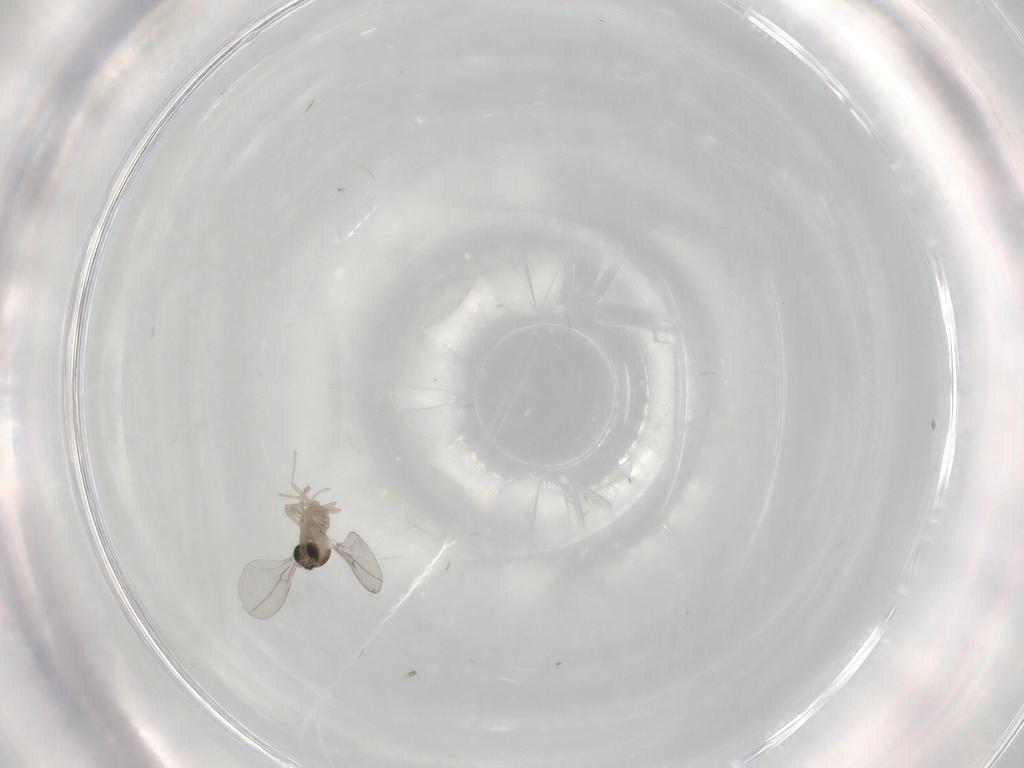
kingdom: Animalia
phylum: Arthropoda
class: Insecta
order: Diptera
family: Cecidomyiidae
